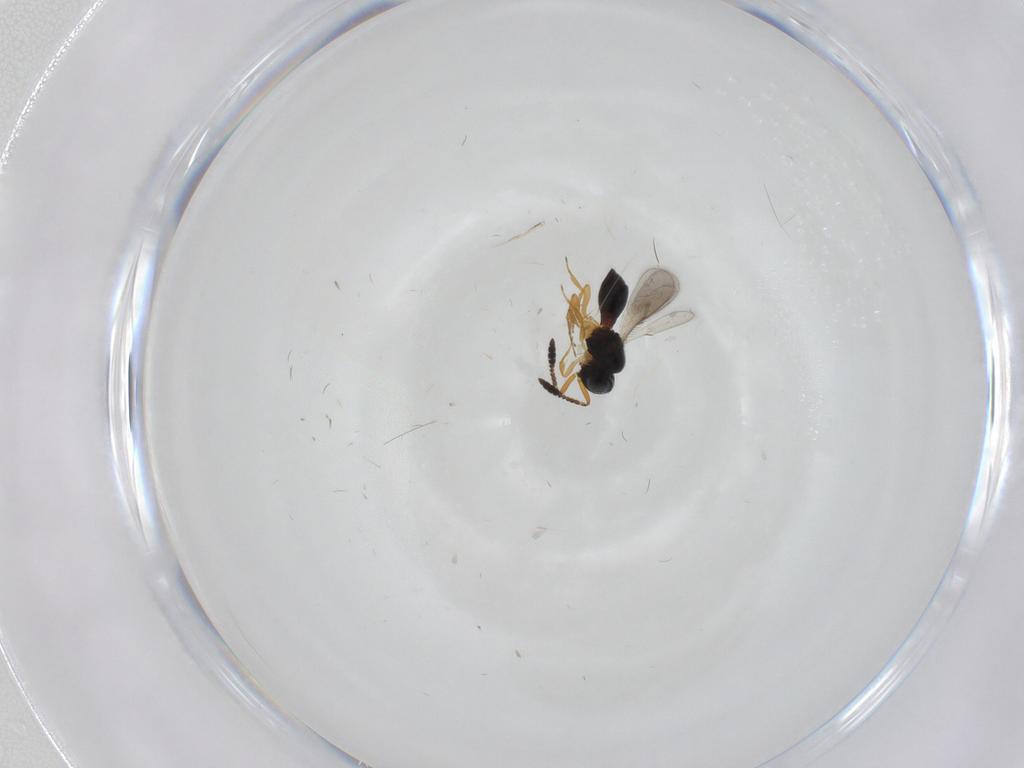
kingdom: Animalia
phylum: Arthropoda
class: Insecta
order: Hymenoptera
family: Scelionidae
